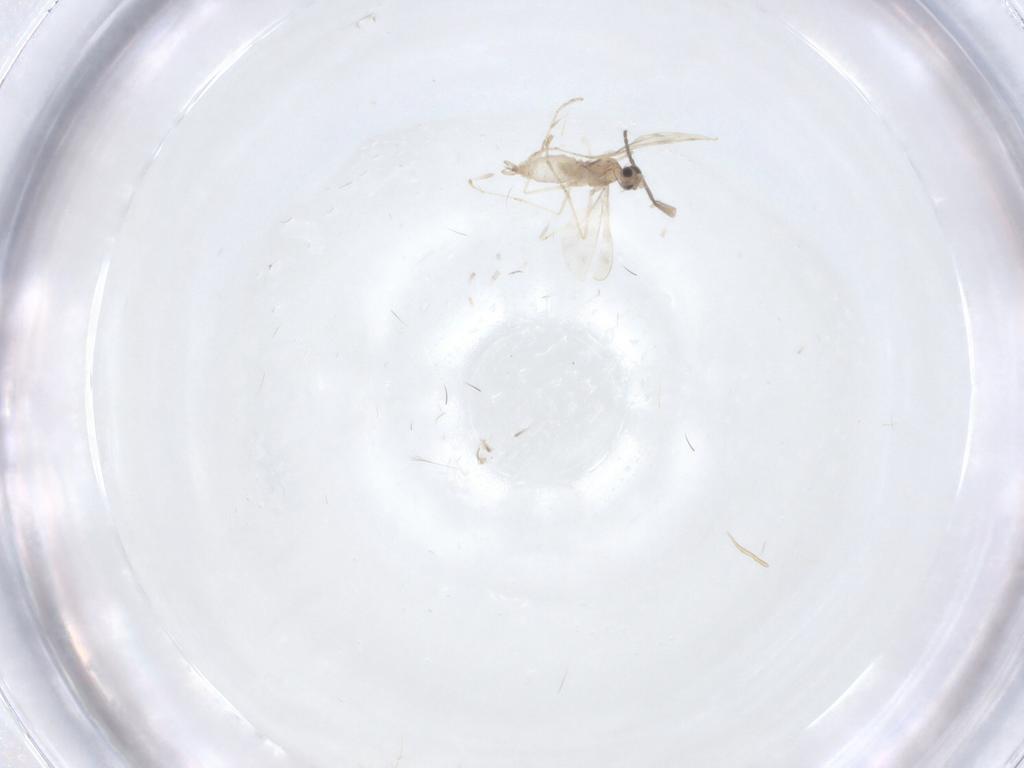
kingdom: Animalia
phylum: Arthropoda
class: Insecta
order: Diptera
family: Cecidomyiidae
